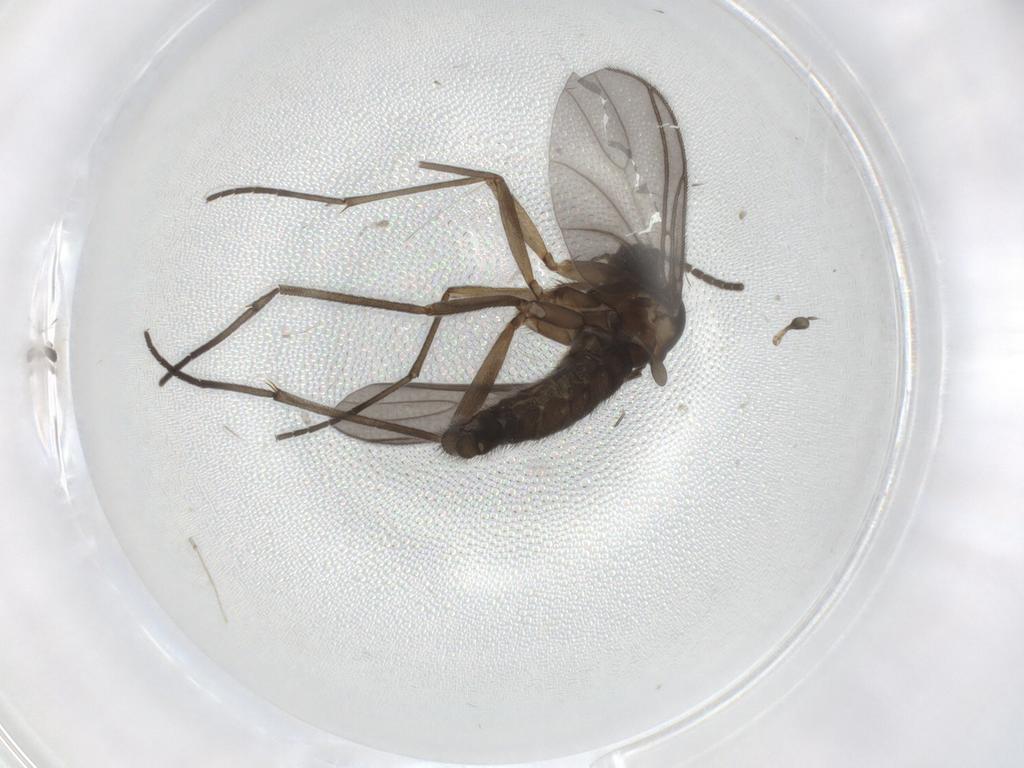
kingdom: Animalia
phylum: Arthropoda
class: Insecta
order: Diptera
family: Sciaridae
